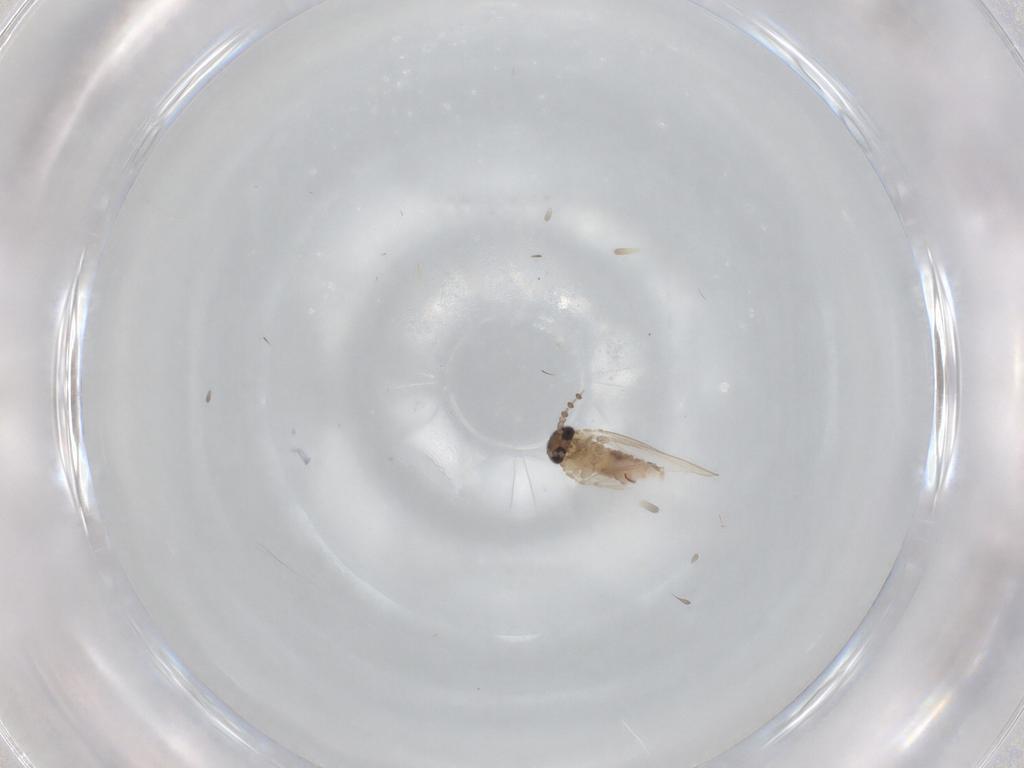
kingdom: Animalia
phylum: Arthropoda
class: Insecta
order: Diptera
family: Psychodidae
